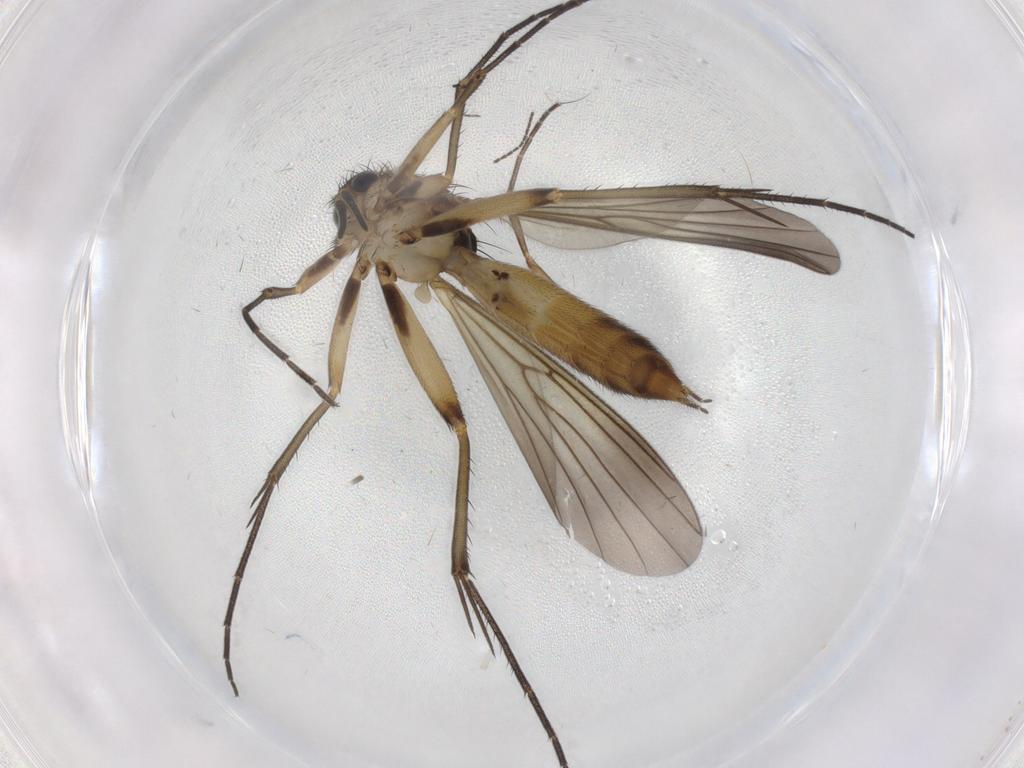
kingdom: Animalia
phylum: Arthropoda
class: Insecta
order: Diptera
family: Mycetophilidae
